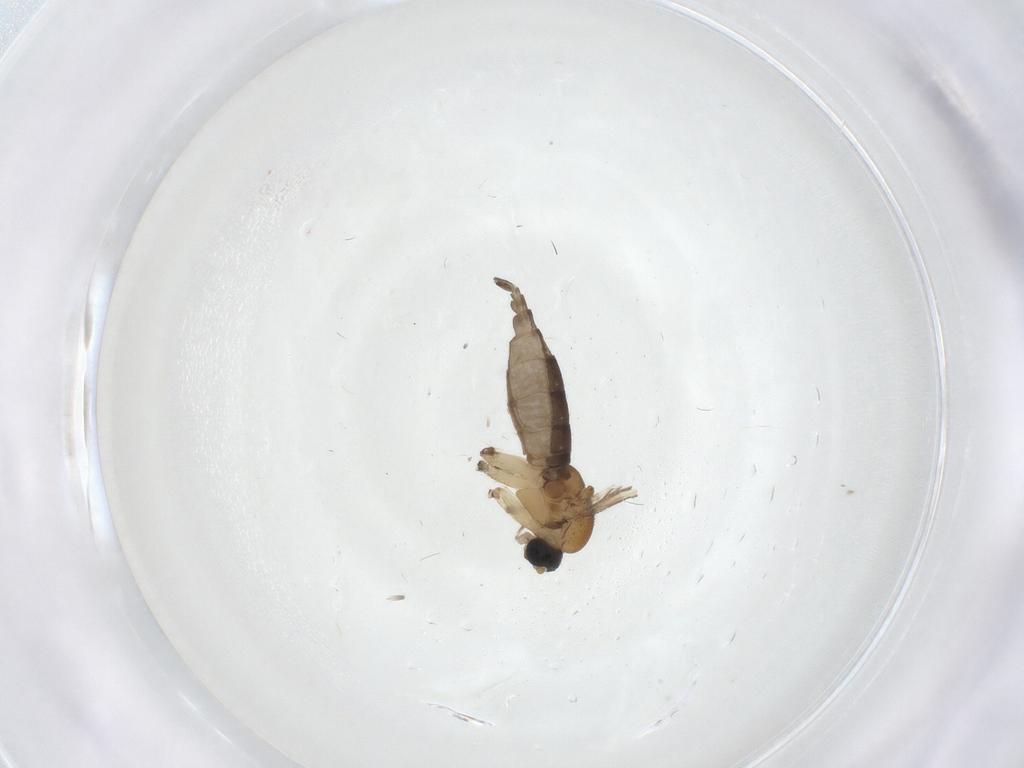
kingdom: Animalia
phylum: Arthropoda
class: Insecta
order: Diptera
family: Sciaridae
